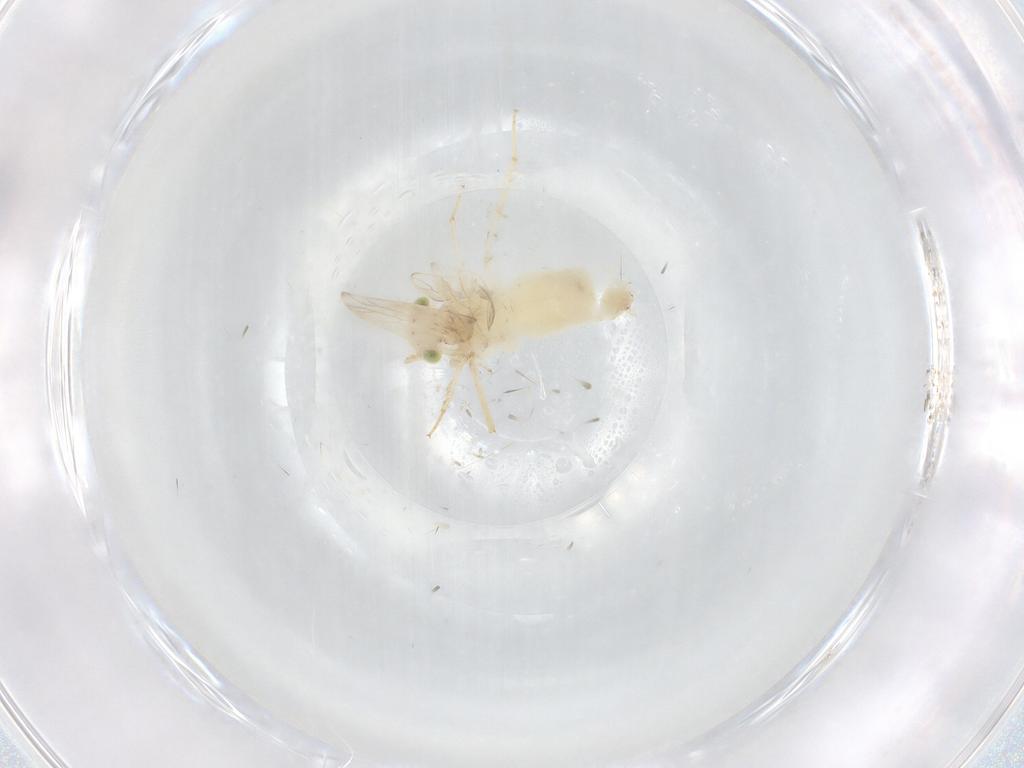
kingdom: Animalia
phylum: Arthropoda
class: Insecta
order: Psocodea
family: Lepidopsocidae
